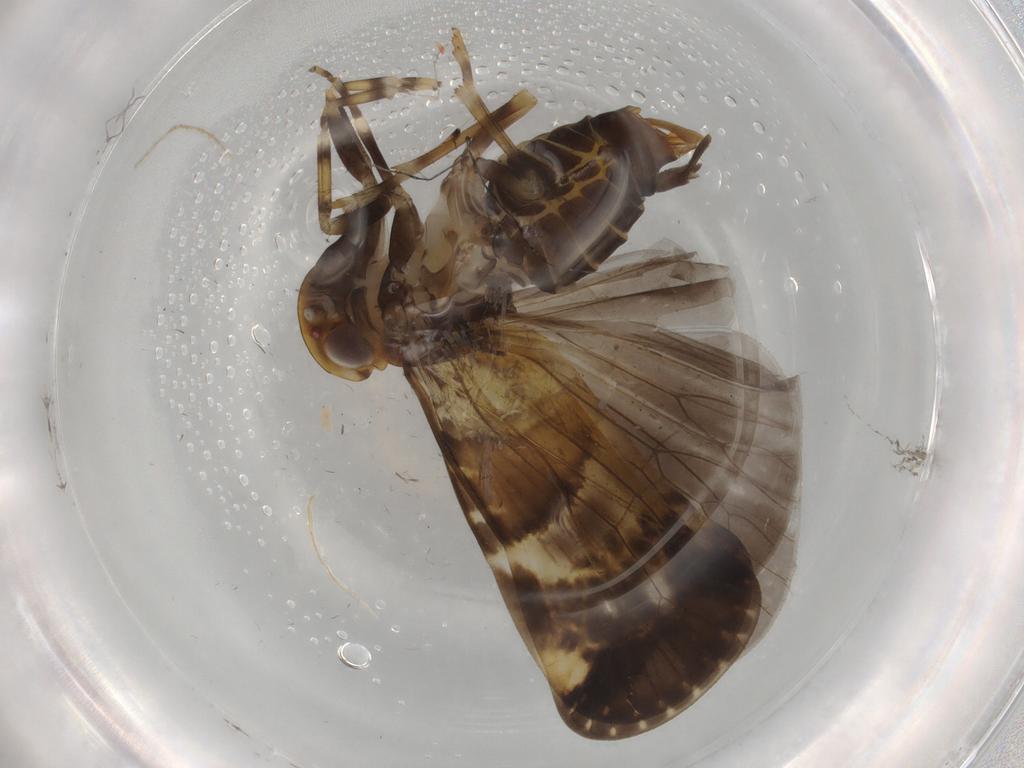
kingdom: Animalia
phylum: Arthropoda
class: Insecta
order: Hemiptera
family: Cixiidae
